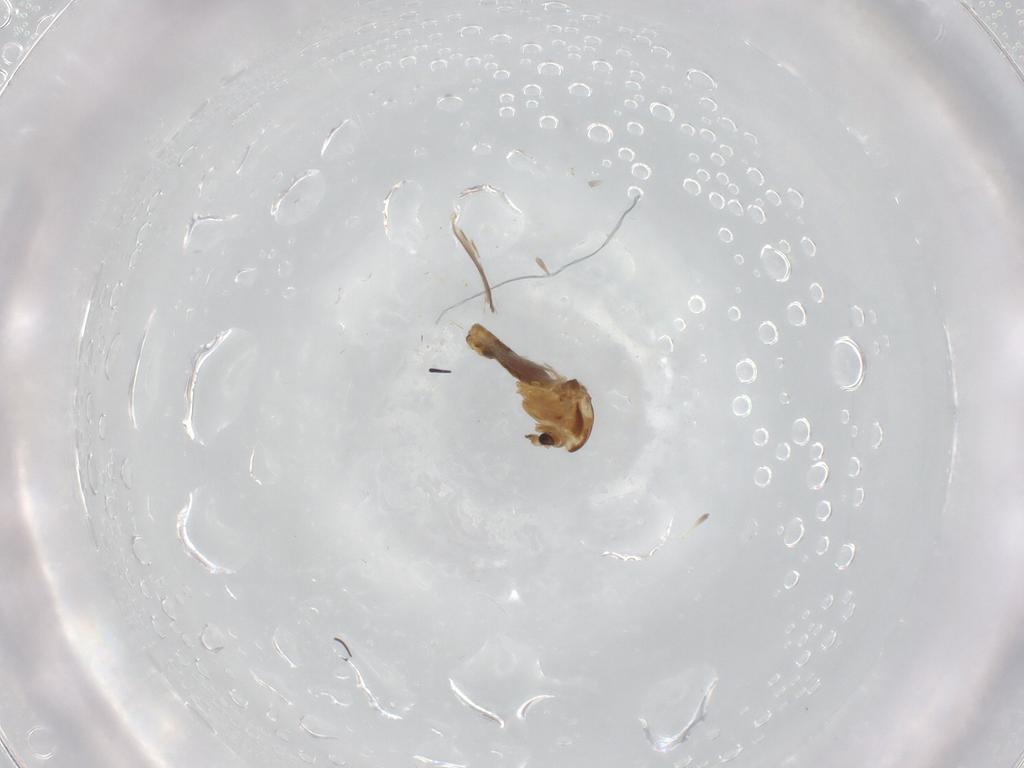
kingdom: Animalia
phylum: Arthropoda
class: Insecta
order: Diptera
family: Chironomidae
